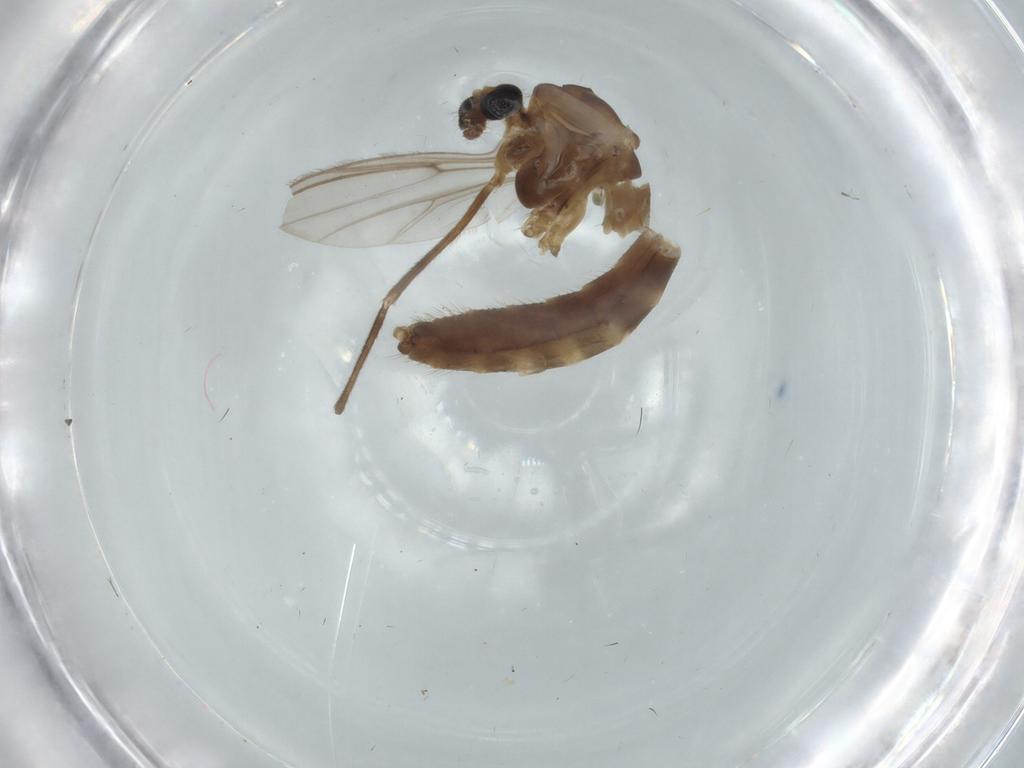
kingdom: Animalia
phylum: Arthropoda
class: Insecta
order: Diptera
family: Chironomidae
